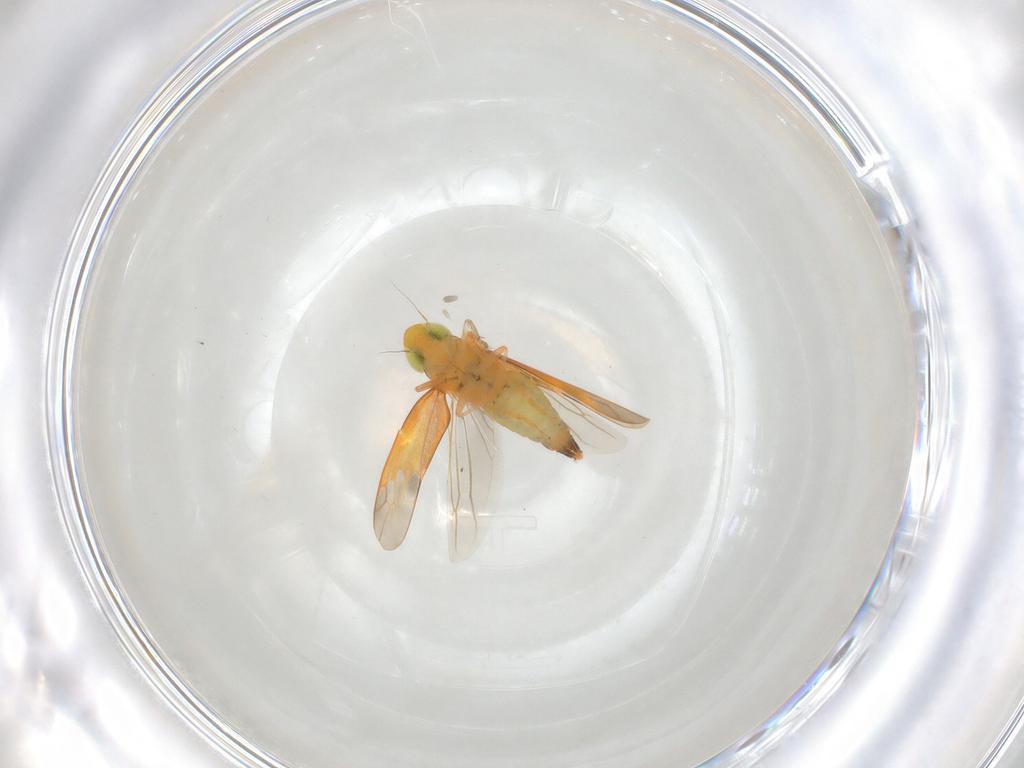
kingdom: Animalia
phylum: Arthropoda
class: Insecta
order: Hemiptera
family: Cicadellidae
